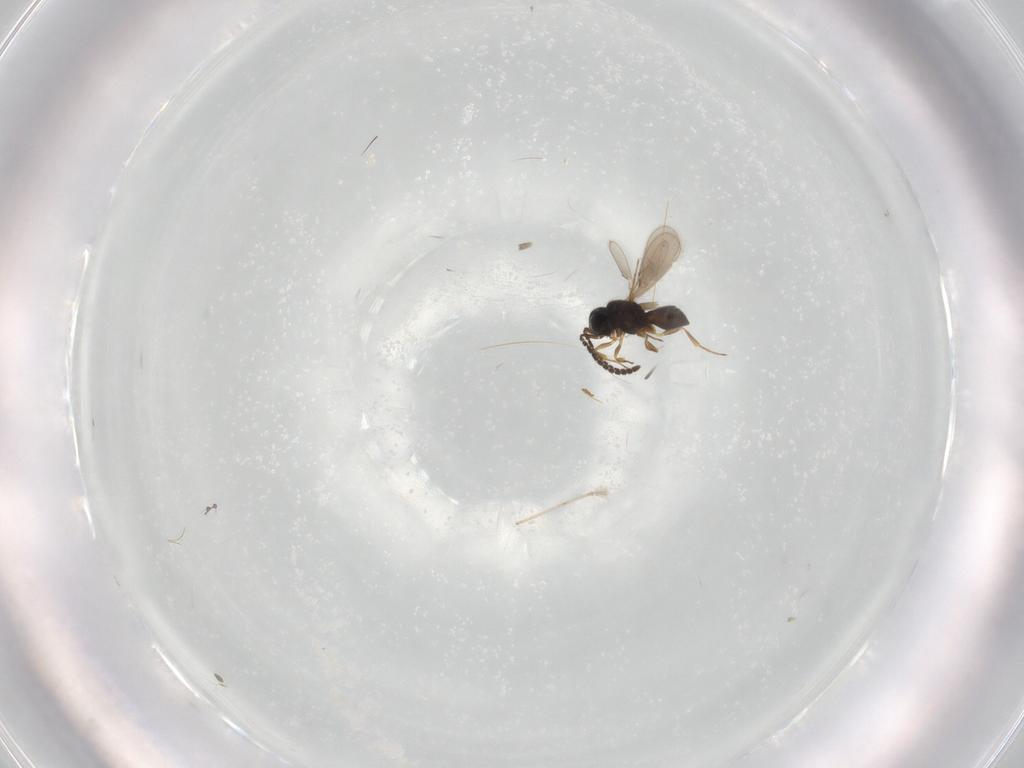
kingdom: Animalia
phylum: Arthropoda
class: Insecta
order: Hymenoptera
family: Scelionidae
